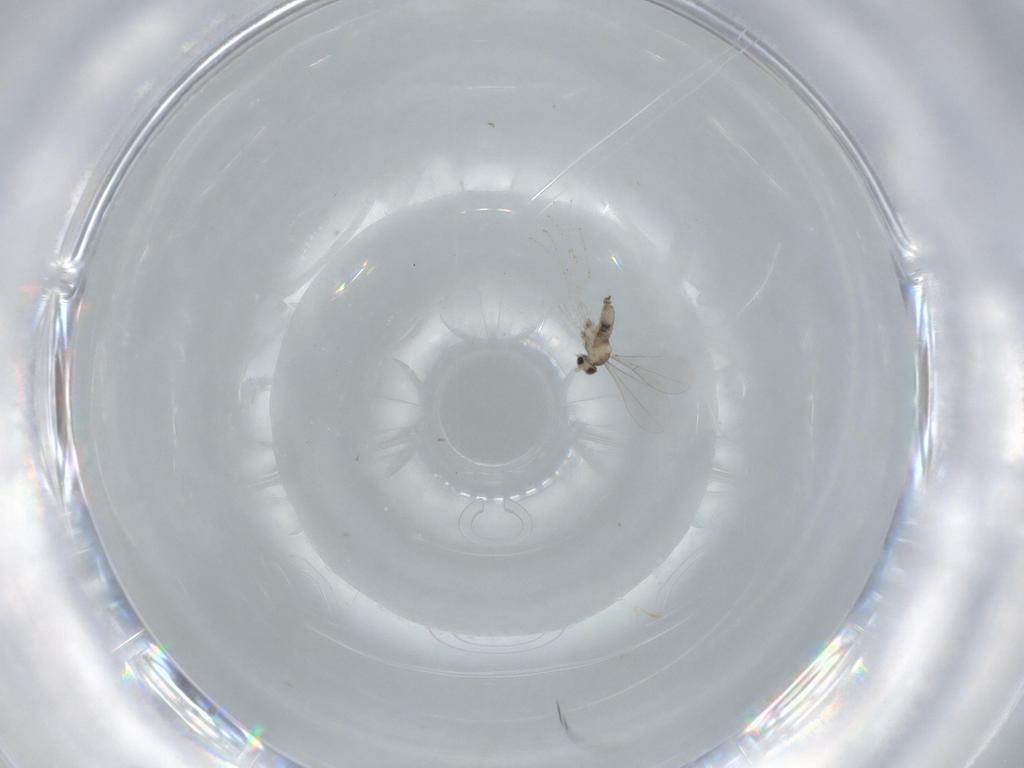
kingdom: Animalia
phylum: Arthropoda
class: Insecta
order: Diptera
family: Cecidomyiidae
